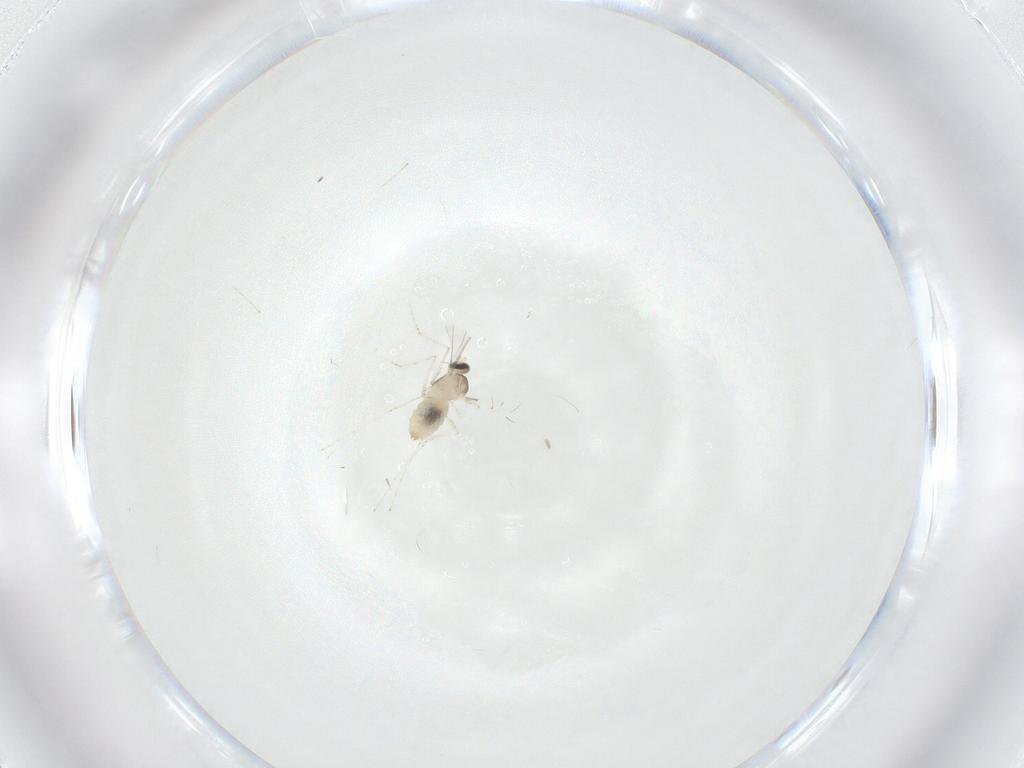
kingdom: Animalia
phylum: Arthropoda
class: Insecta
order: Diptera
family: Cecidomyiidae
